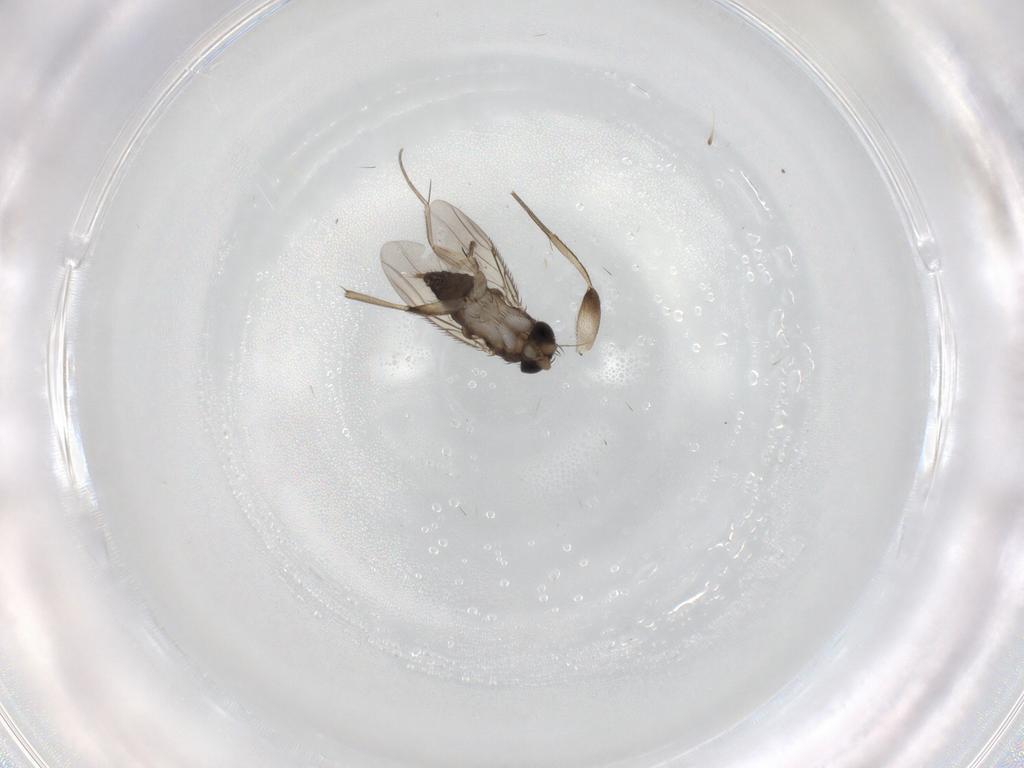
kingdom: Animalia
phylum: Arthropoda
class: Insecta
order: Diptera
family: Phoridae
